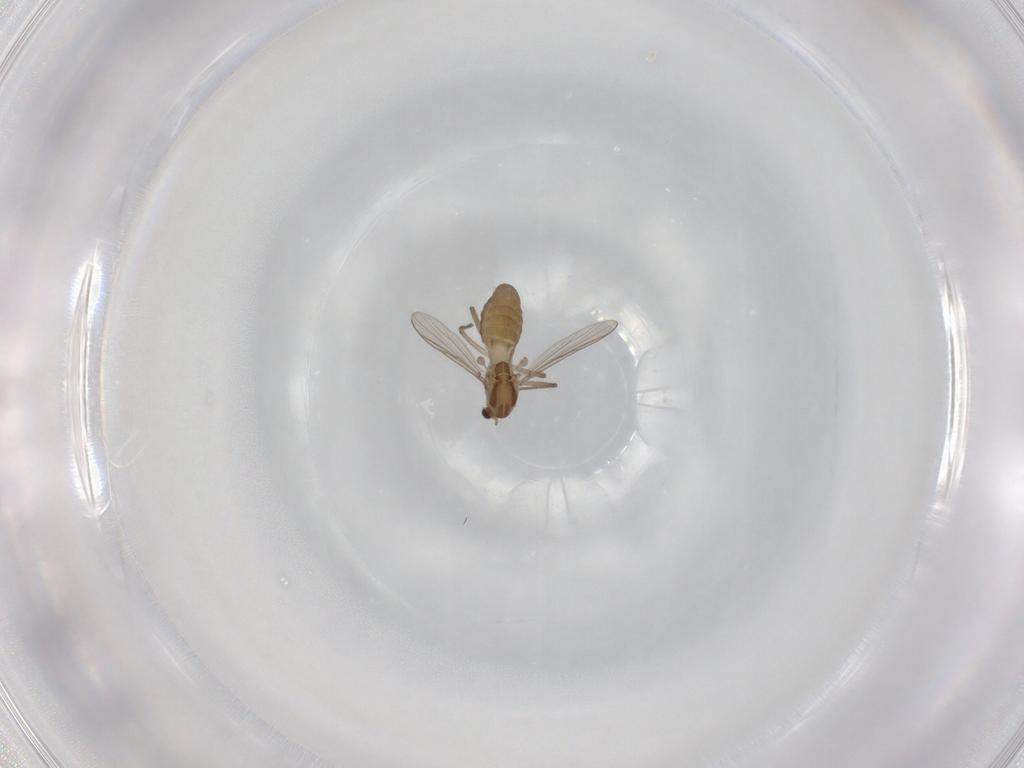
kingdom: Animalia
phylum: Arthropoda
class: Insecta
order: Diptera
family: Chironomidae
